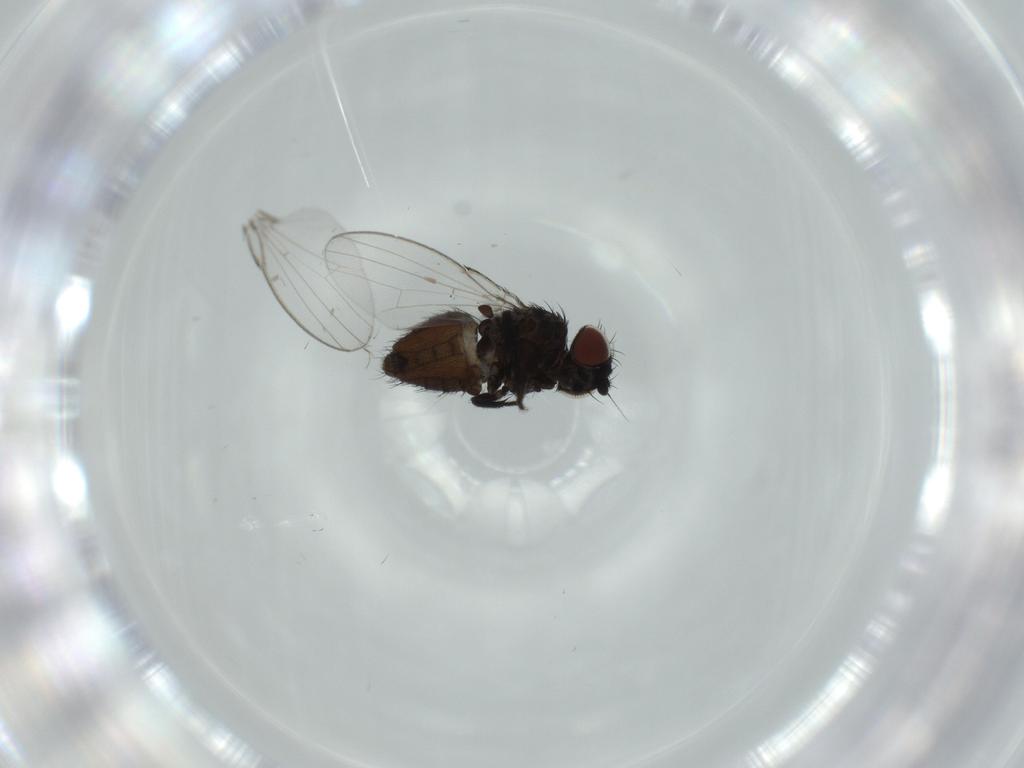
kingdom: Animalia
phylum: Arthropoda
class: Insecta
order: Diptera
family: Milichiidae
